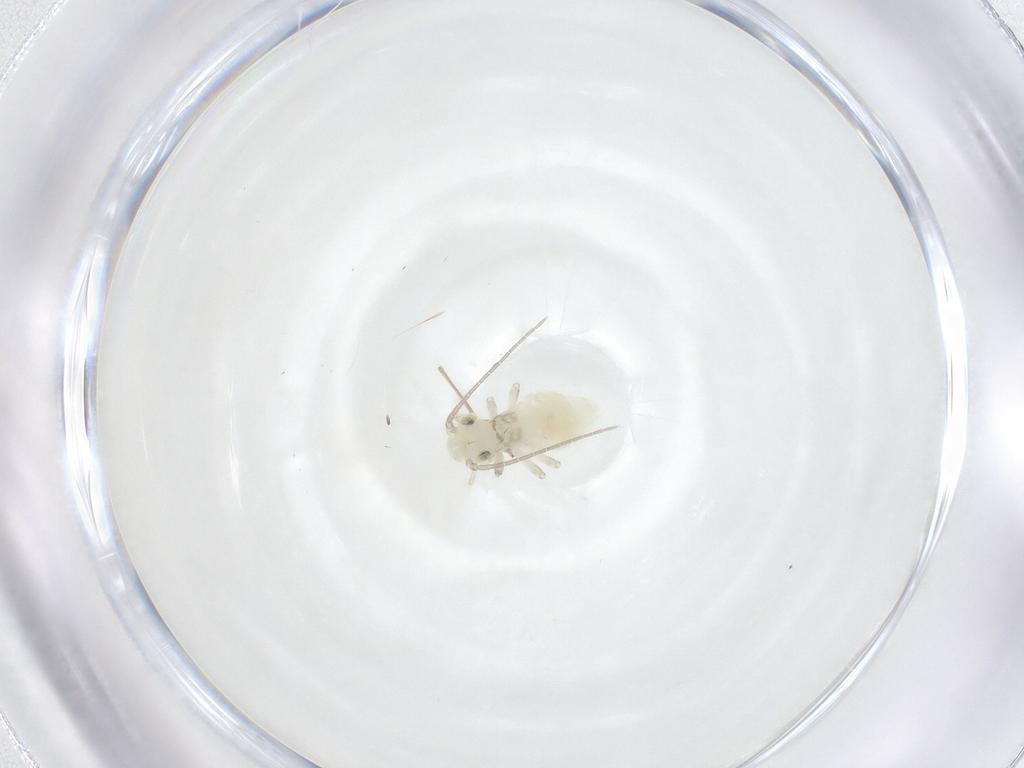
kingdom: Animalia
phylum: Arthropoda
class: Insecta
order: Psocodea
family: Caeciliusidae
